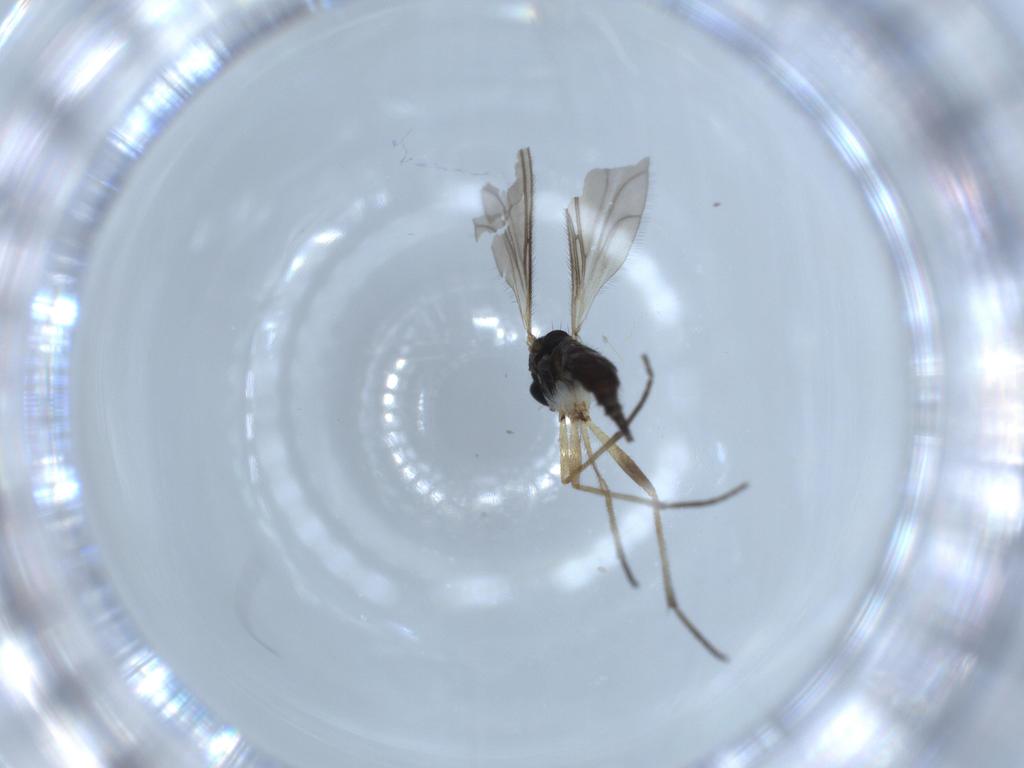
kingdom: Animalia
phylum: Arthropoda
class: Insecta
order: Diptera
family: Sciaridae
